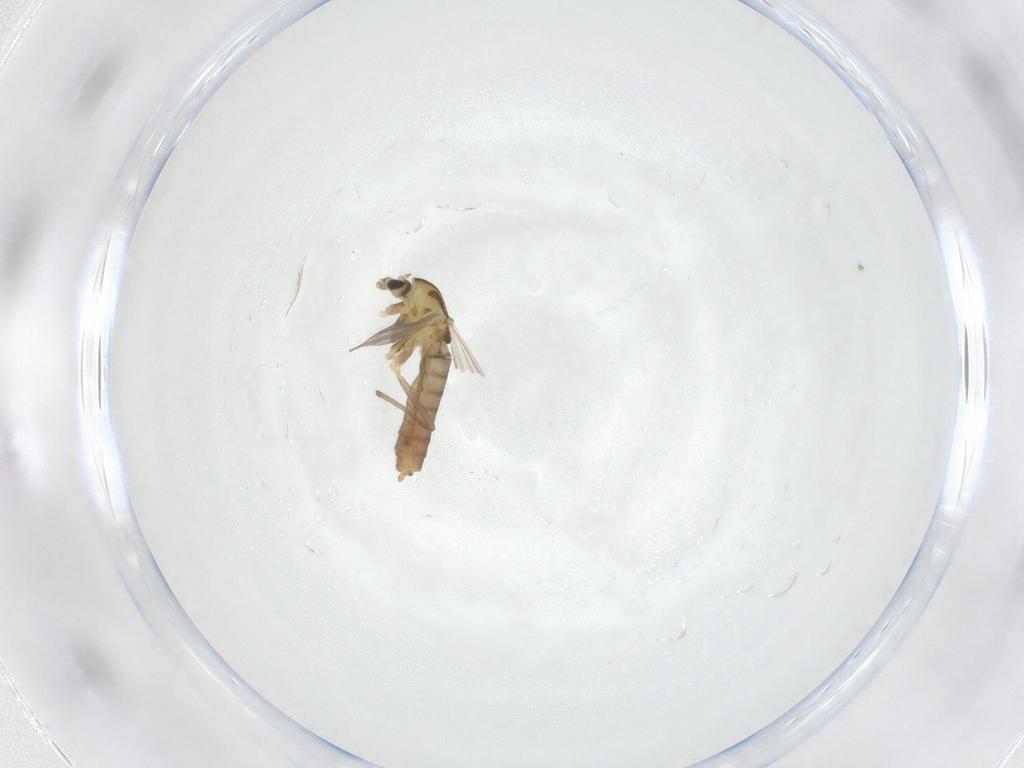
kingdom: Animalia
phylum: Arthropoda
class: Insecta
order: Diptera
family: Chironomidae
